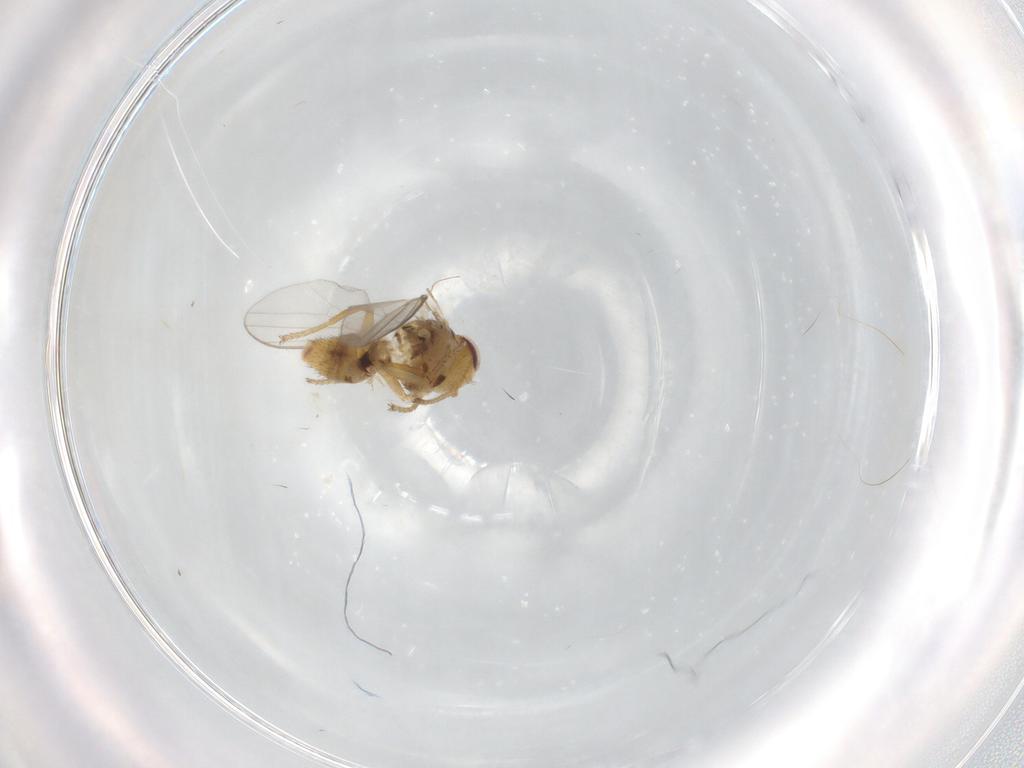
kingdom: Animalia
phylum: Arthropoda
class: Insecta
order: Diptera
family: Chloropidae
